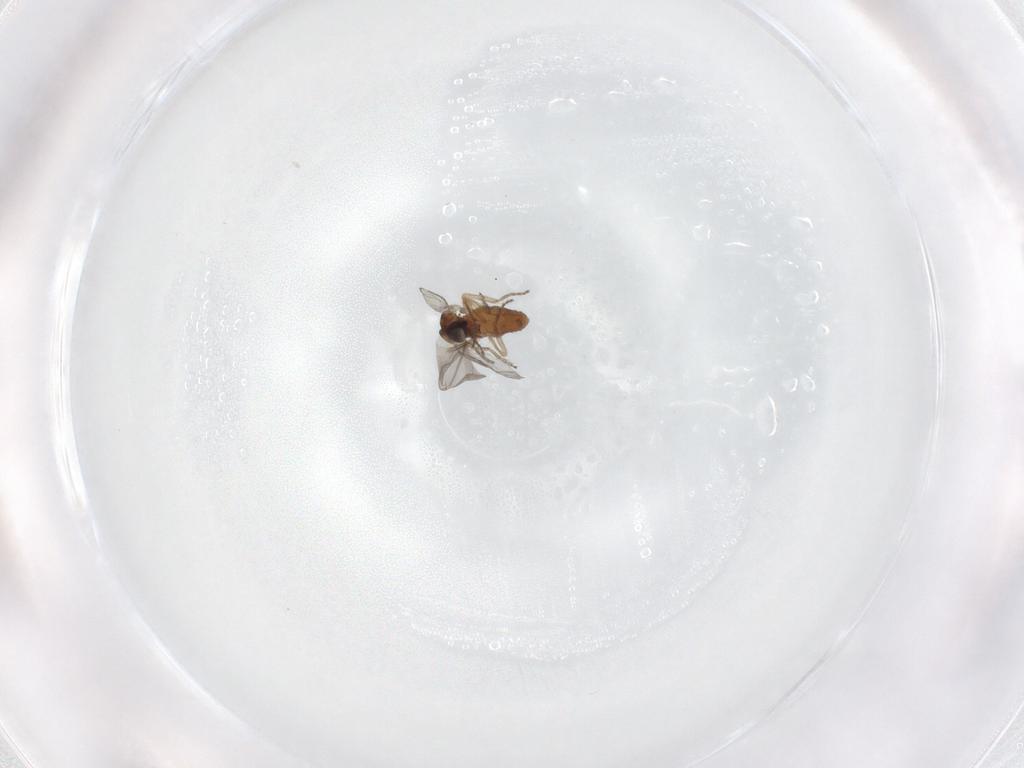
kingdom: Animalia
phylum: Arthropoda
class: Insecta
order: Diptera
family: Ceratopogonidae
